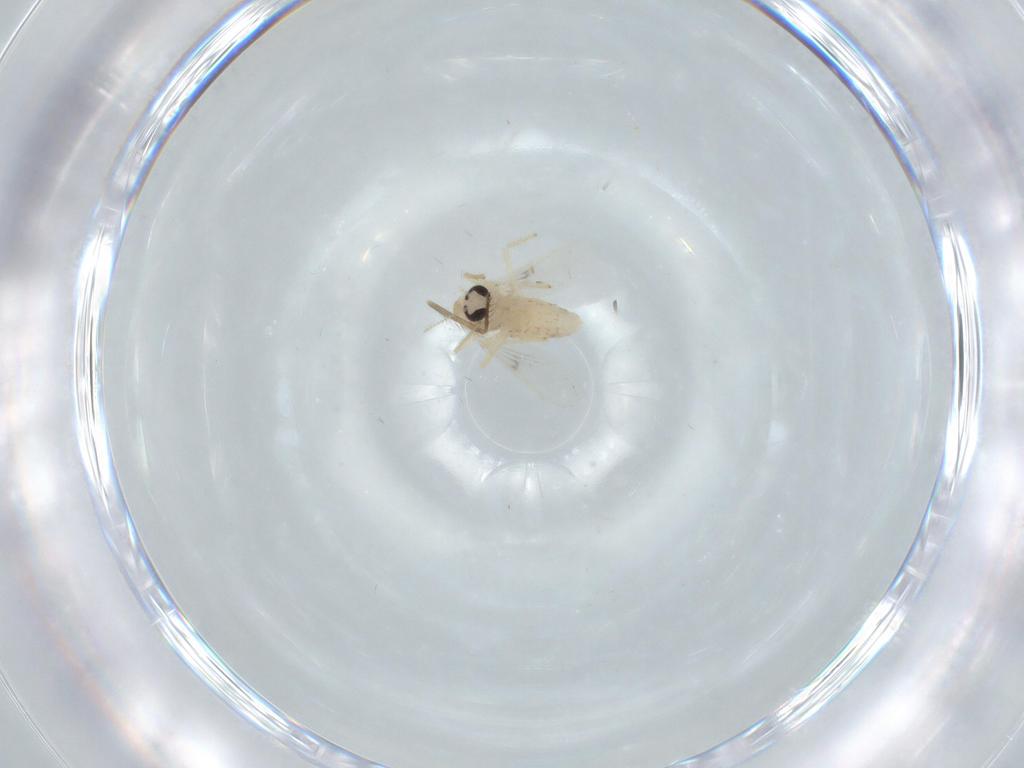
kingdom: Animalia
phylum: Arthropoda
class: Insecta
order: Diptera
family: Chironomidae
